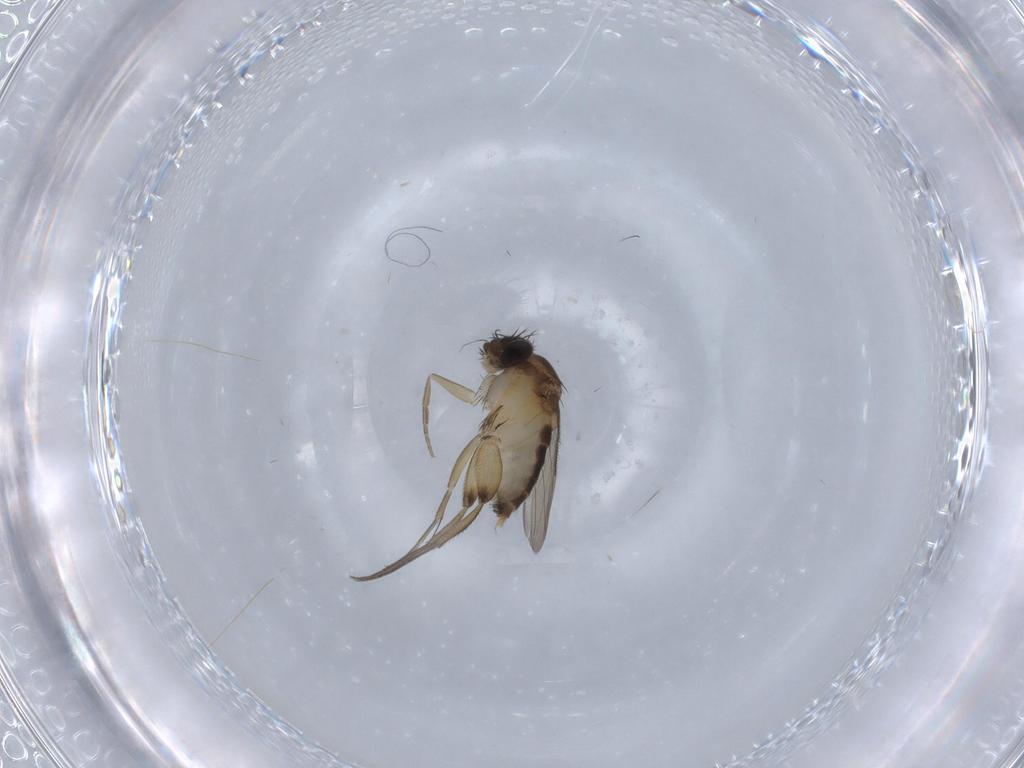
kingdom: Animalia
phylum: Arthropoda
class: Insecta
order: Diptera
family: Phoridae
